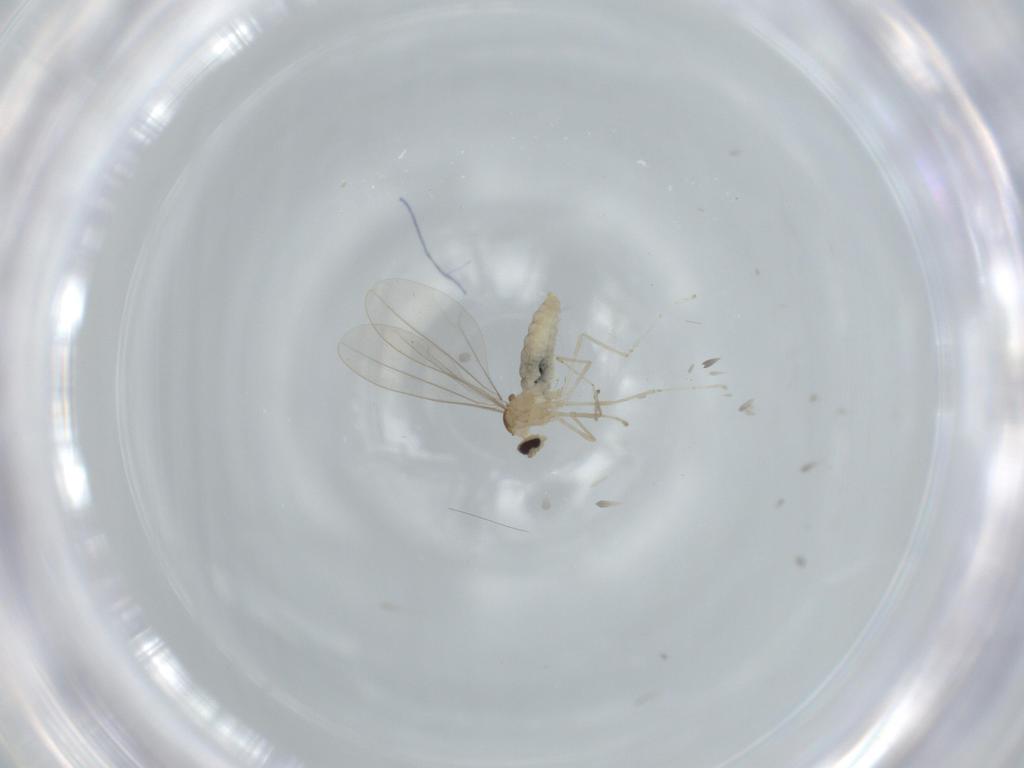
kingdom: Animalia
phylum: Arthropoda
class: Insecta
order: Diptera
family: Cecidomyiidae
